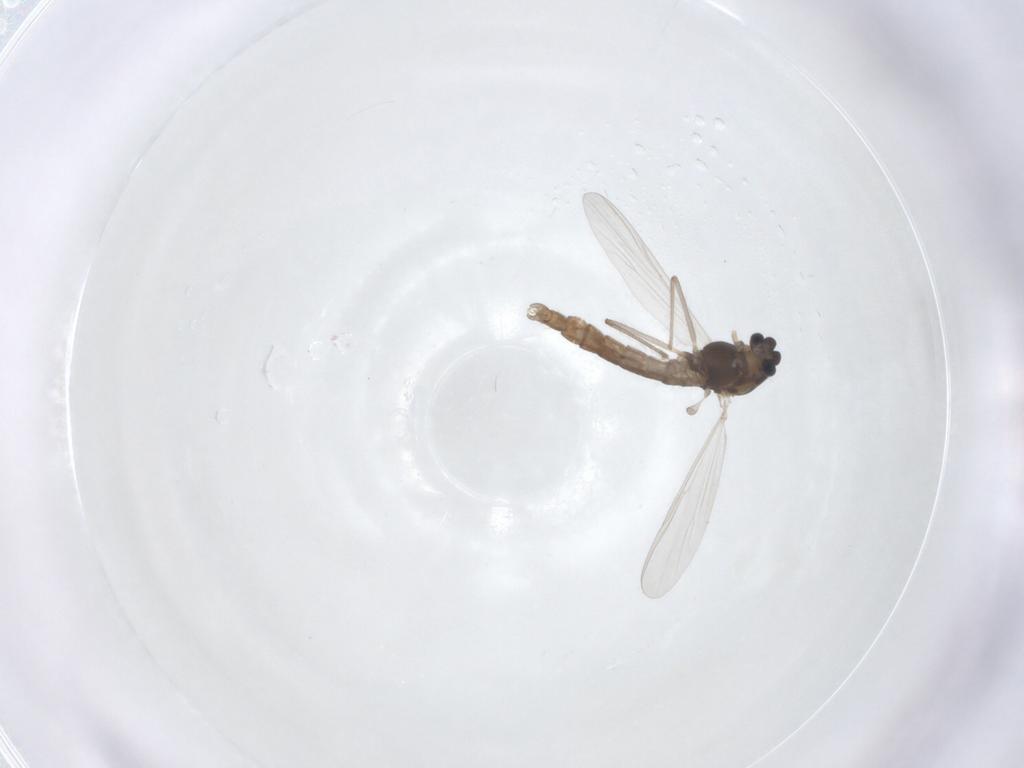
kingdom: Animalia
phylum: Arthropoda
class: Insecta
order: Diptera
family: Chironomidae
